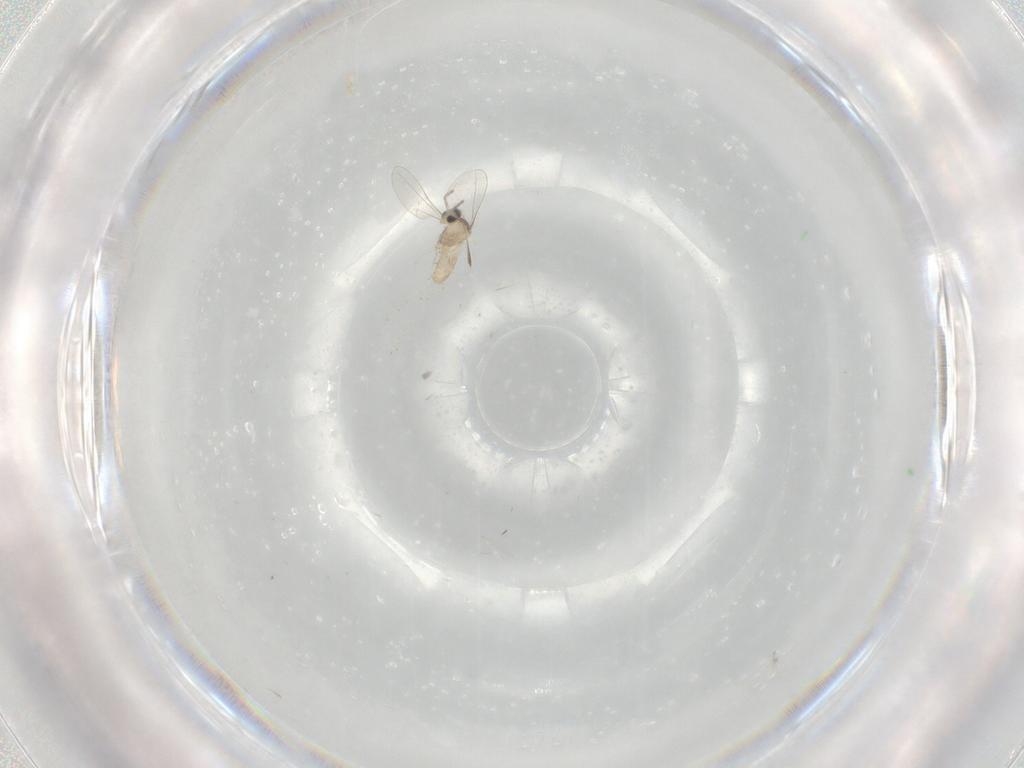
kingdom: Animalia
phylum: Arthropoda
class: Insecta
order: Diptera
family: Cecidomyiidae
